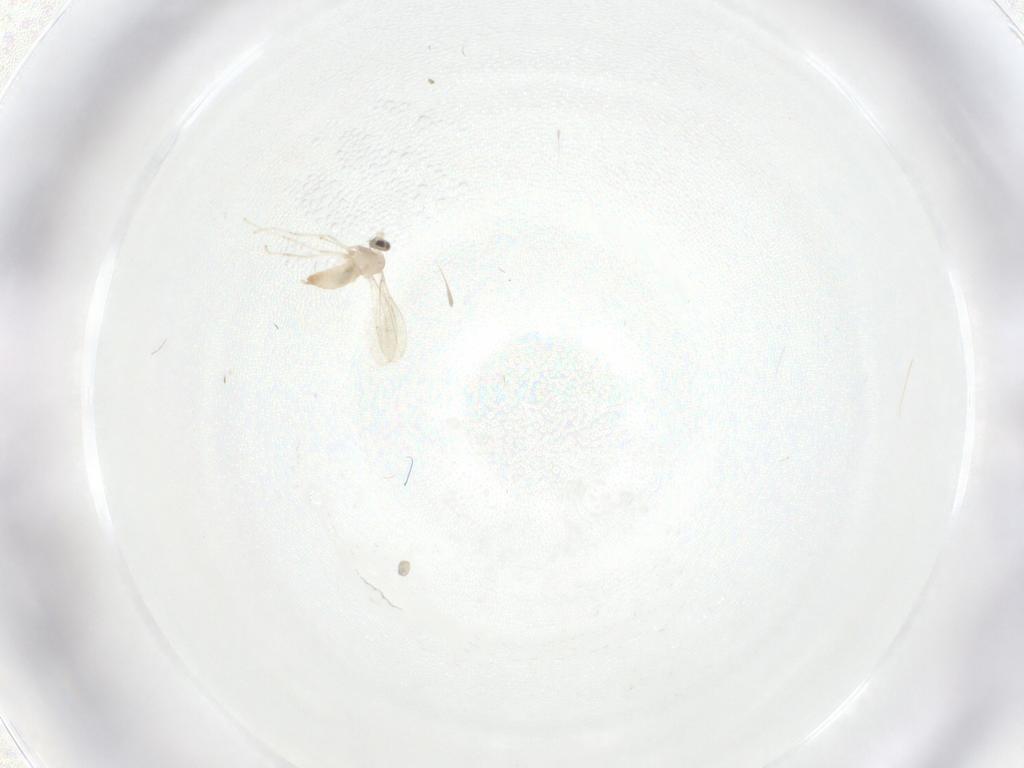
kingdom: Animalia
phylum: Arthropoda
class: Insecta
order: Diptera
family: Cecidomyiidae
